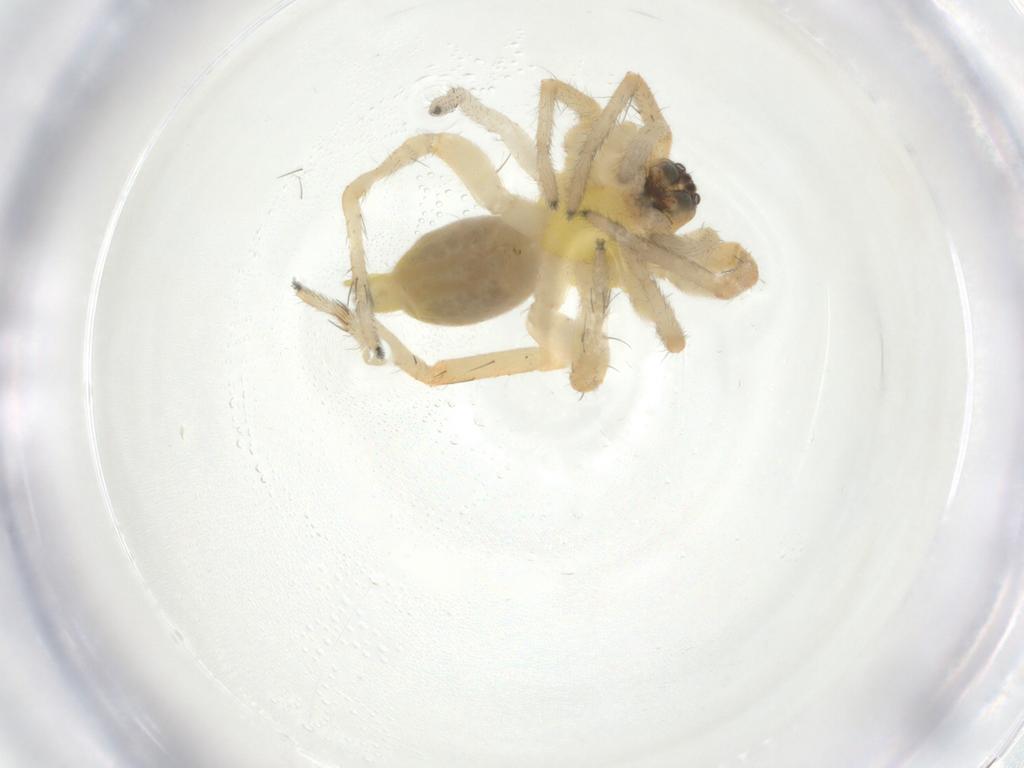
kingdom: Animalia
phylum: Arthropoda
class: Arachnida
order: Araneae
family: Anyphaenidae
